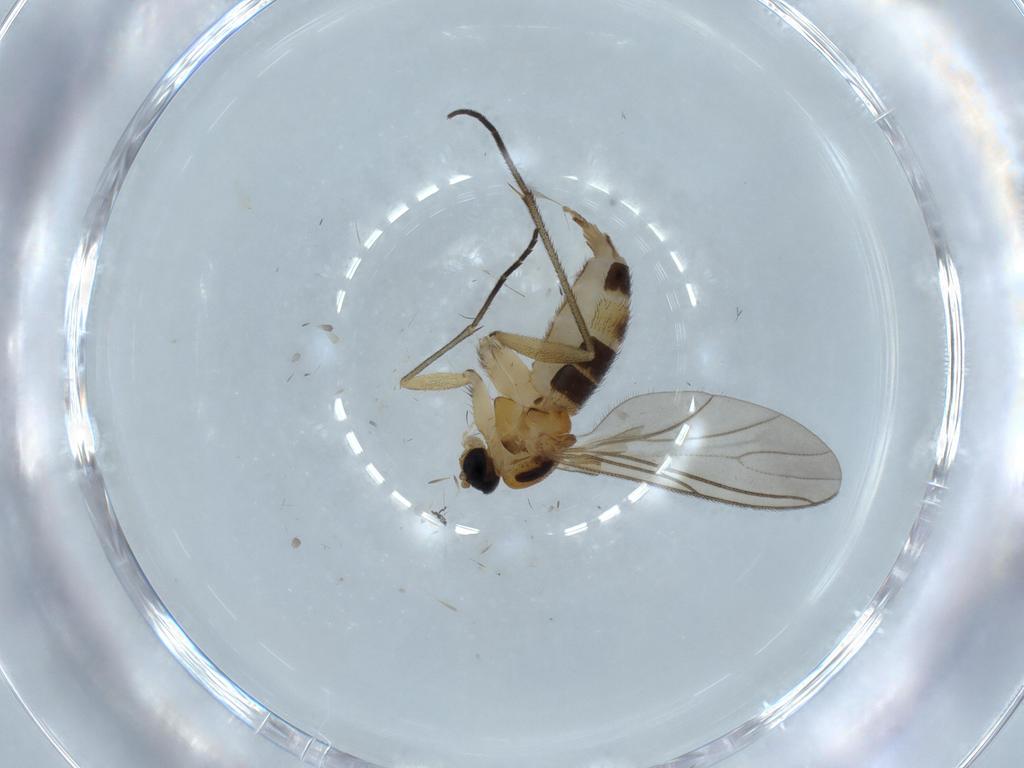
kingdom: Animalia
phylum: Arthropoda
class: Insecta
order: Diptera
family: Sciaridae
